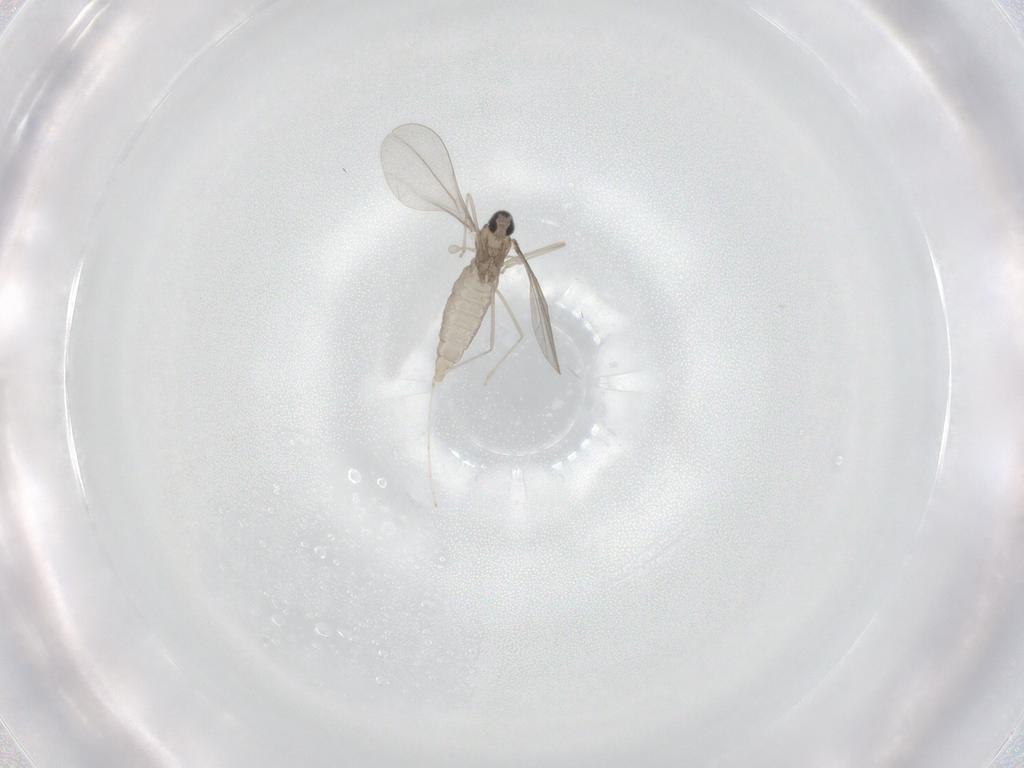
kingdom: Animalia
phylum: Arthropoda
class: Insecta
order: Diptera
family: Cecidomyiidae
